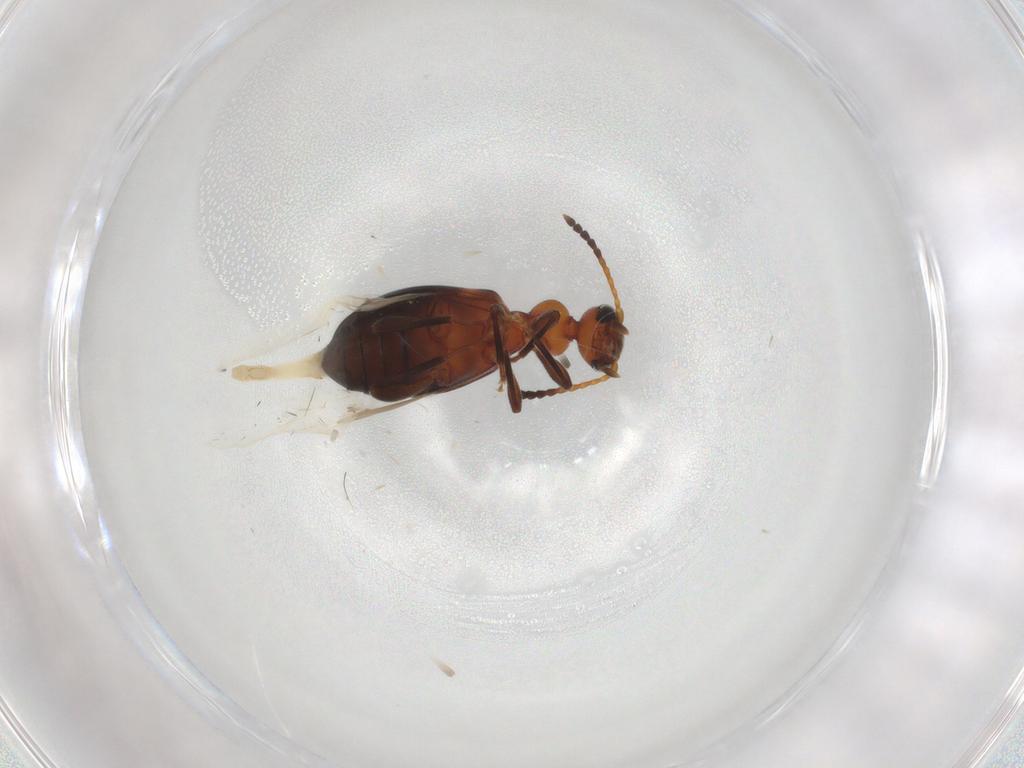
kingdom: Animalia
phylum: Arthropoda
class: Insecta
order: Coleoptera
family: Anthicidae
